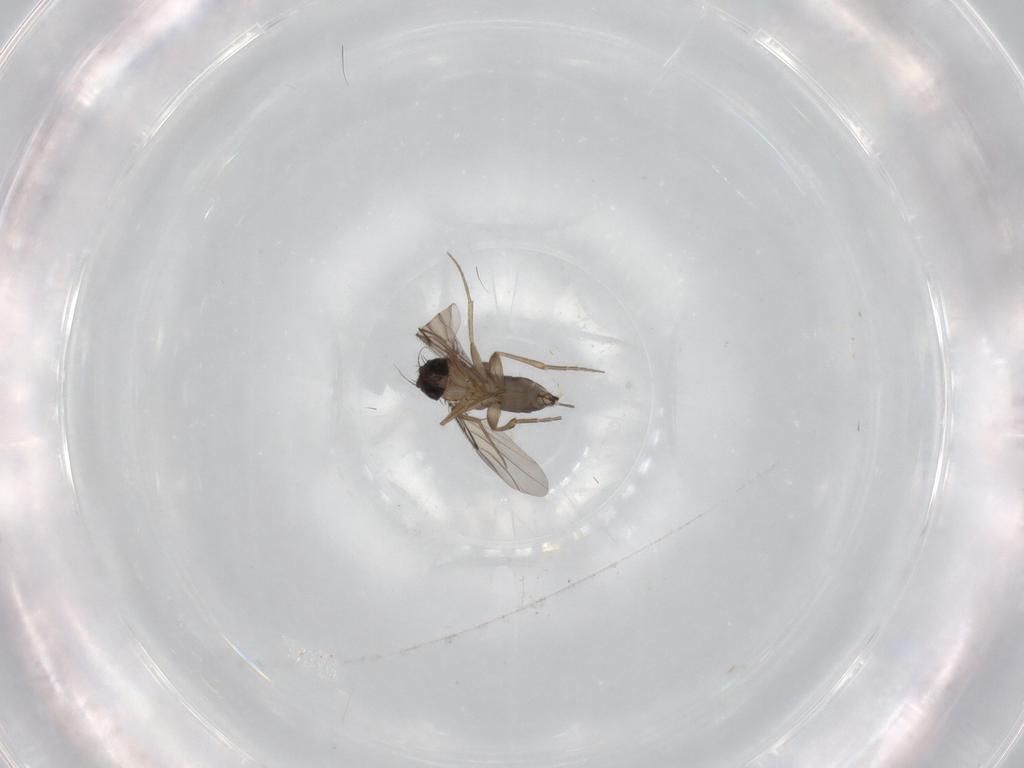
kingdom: Animalia
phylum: Arthropoda
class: Insecta
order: Diptera
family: Phoridae
